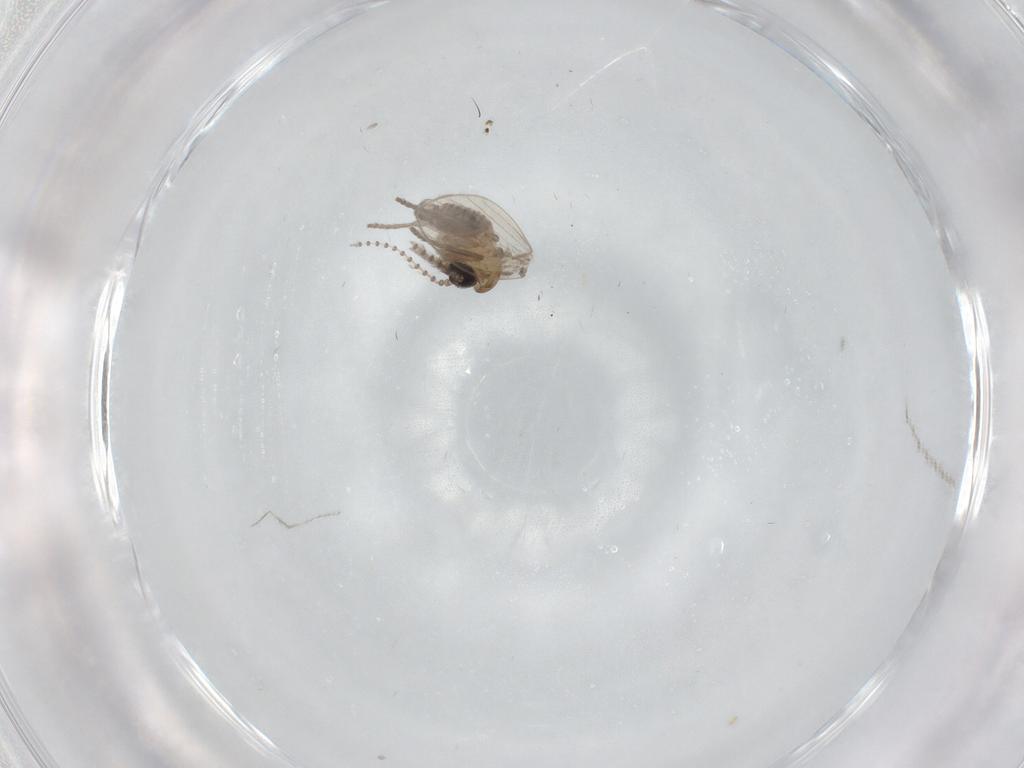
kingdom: Animalia
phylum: Arthropoda
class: Insecta
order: Diptera
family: Psychodidae
